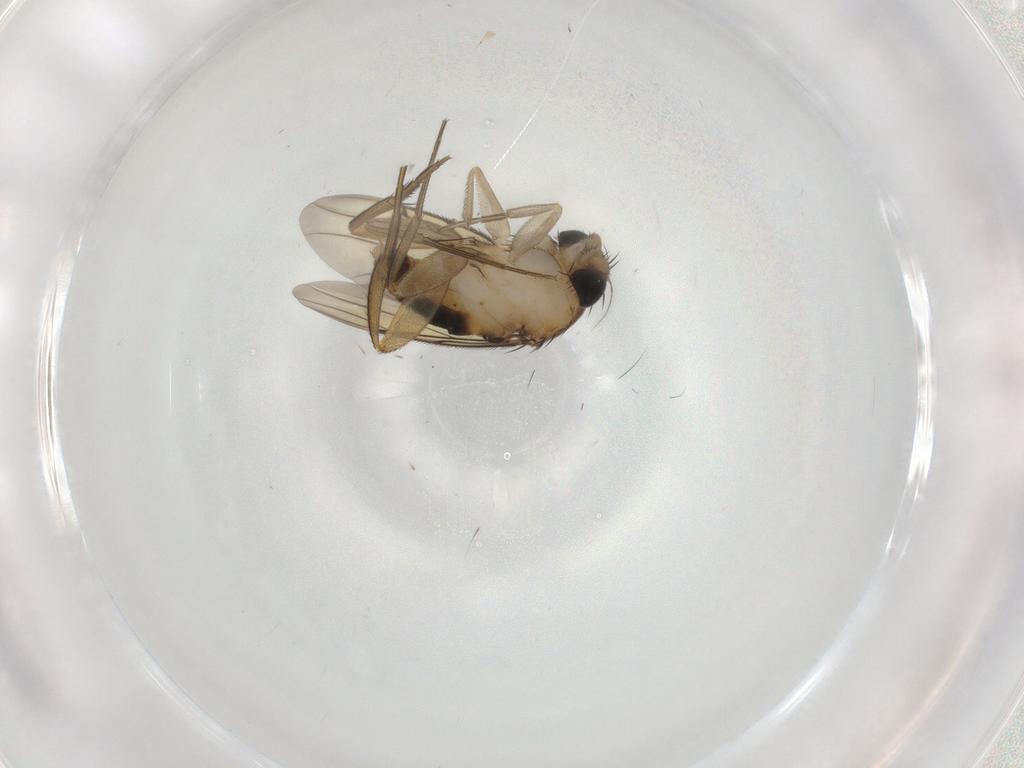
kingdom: Animalia
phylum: Arthropoda
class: Insecta
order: Diptera
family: Phoridae
